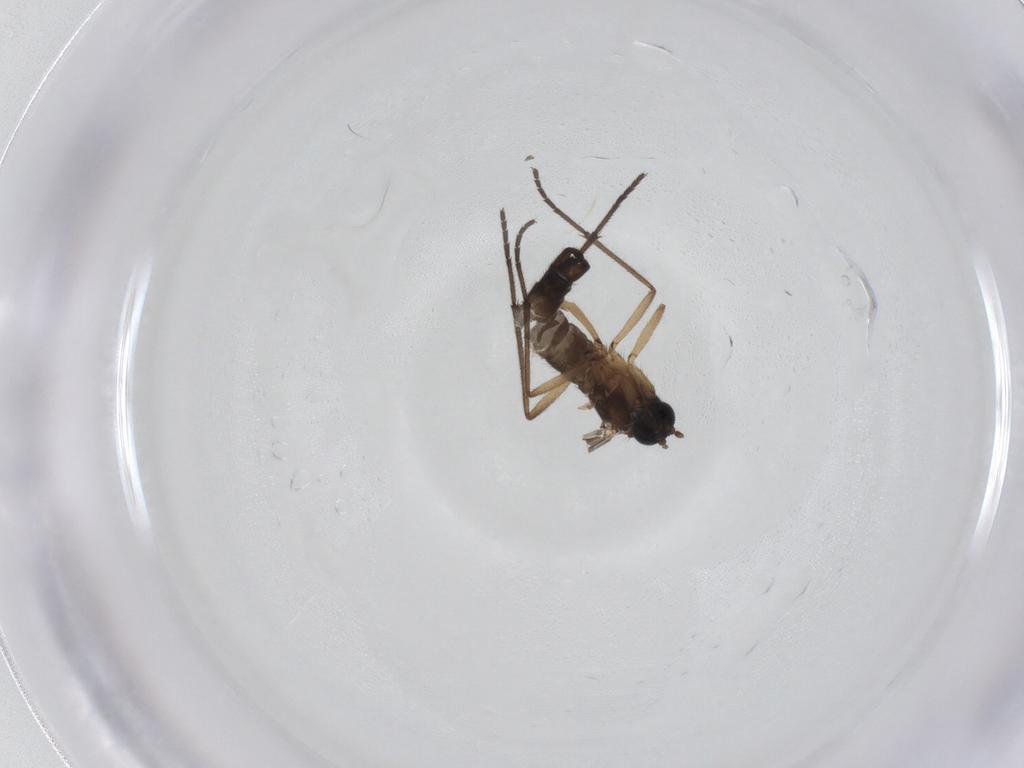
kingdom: Animalia
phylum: Arthropoda
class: Insecta
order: Diptera
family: Sciaridae
